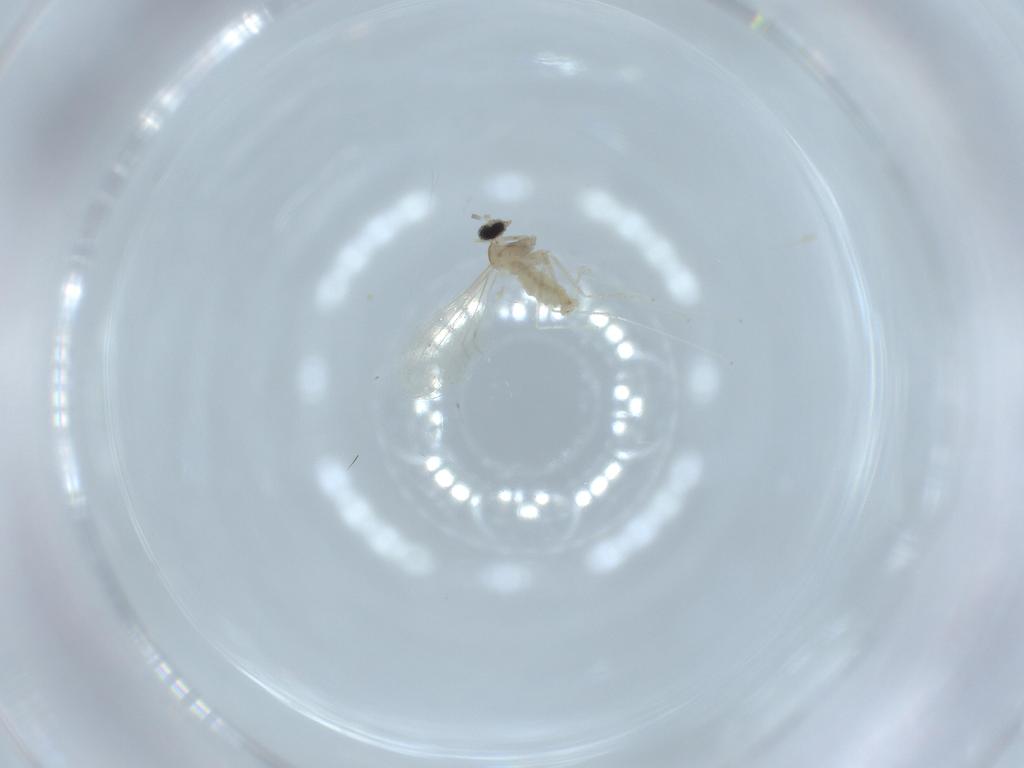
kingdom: Animalia
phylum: Arthropoda
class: Insecta
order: Diptera
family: Cecidomyiidae
